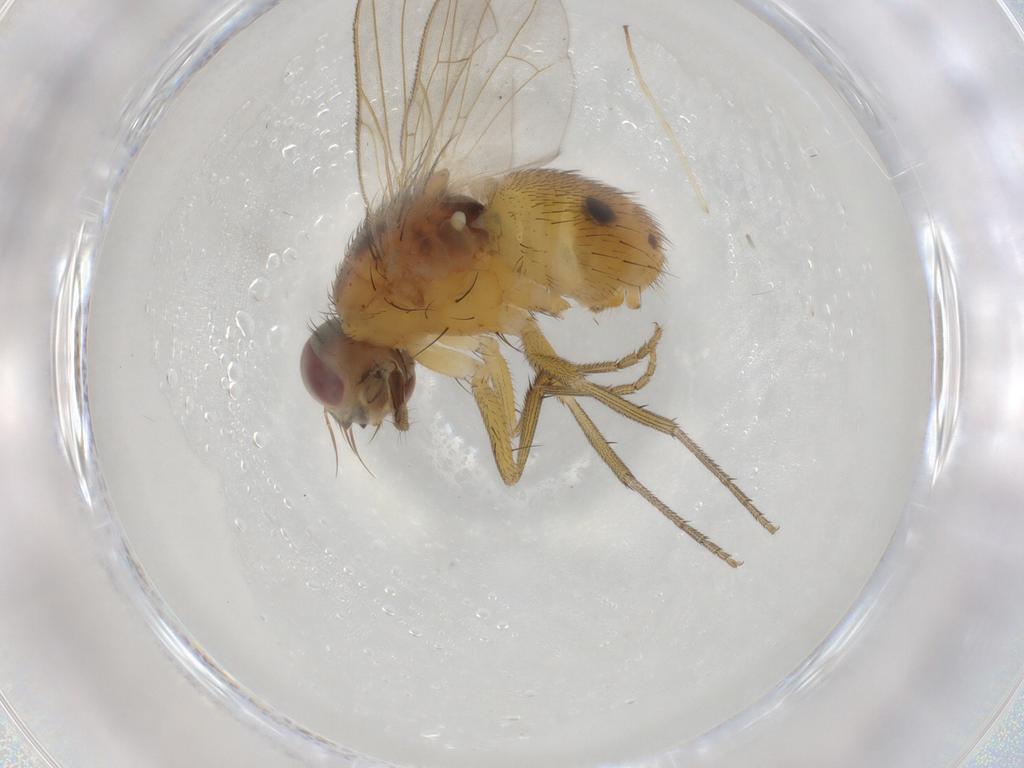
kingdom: Animalia
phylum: Arthropoda
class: Insecta
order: Diptera
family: Muscidae
